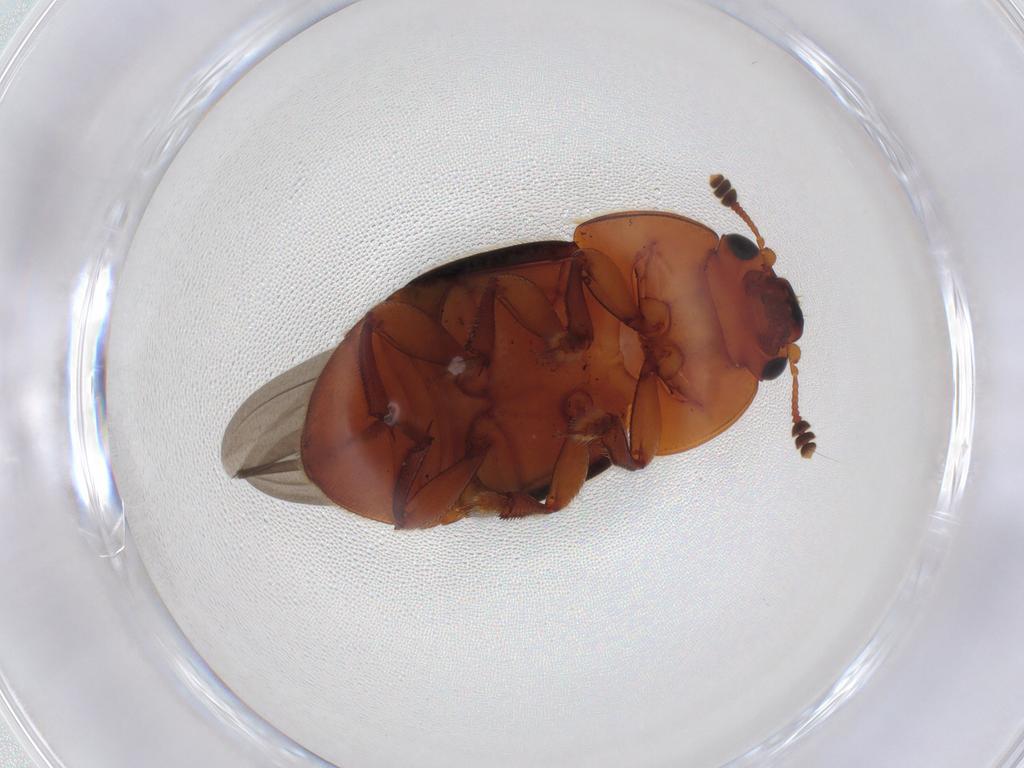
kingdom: Animalia
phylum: Arthropoda
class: Insecta
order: Coleoptera
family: Nitidulidae
